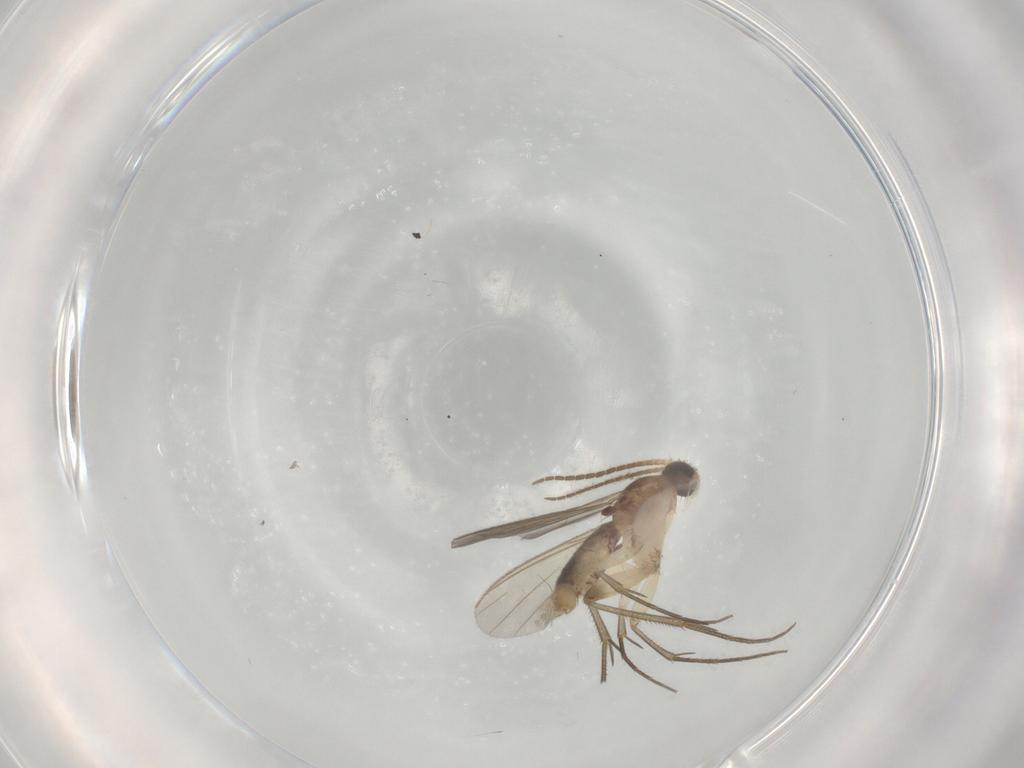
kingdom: Animalia
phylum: Arthropoda
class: Insecta
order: Diptera
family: Mycetophilidae
